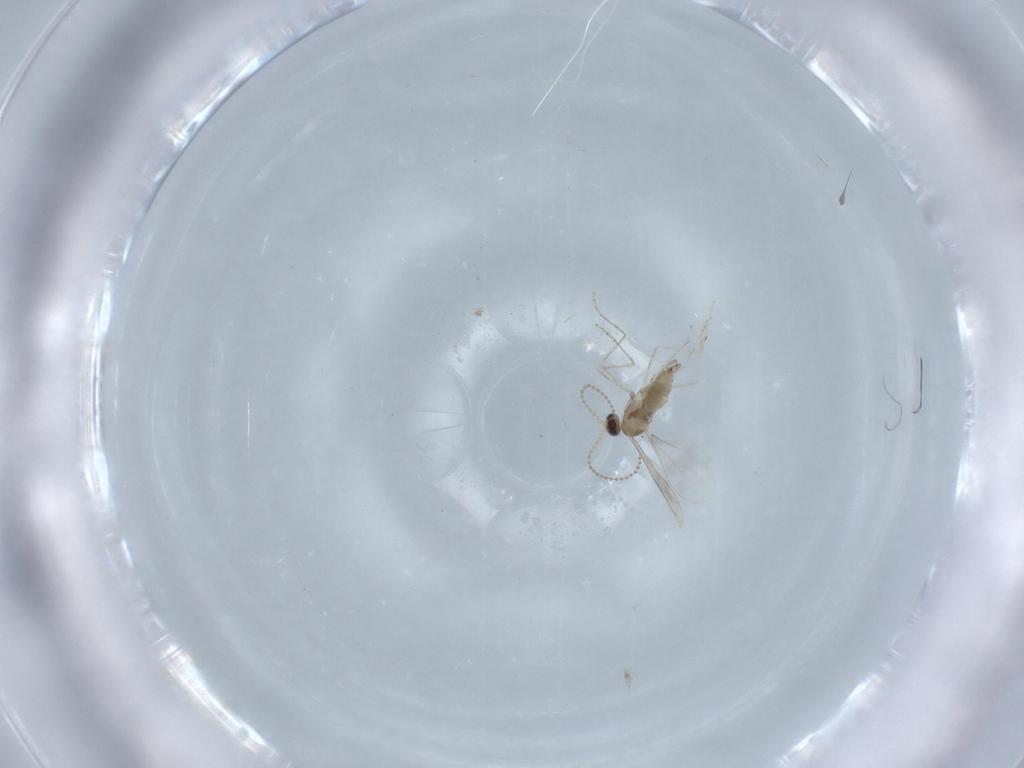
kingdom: Animalia
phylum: Arthropoda
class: Insecta
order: Diptera
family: Cecidomyiidae
